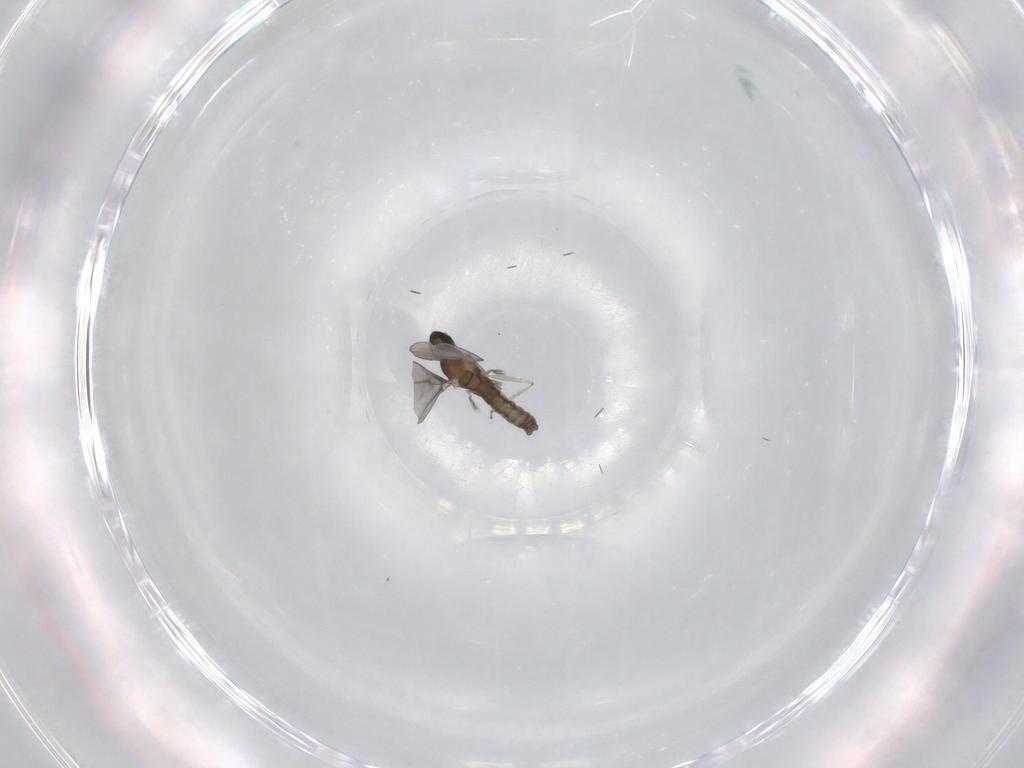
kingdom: Animalia
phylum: Arthropoda
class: Insecta
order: Diptera
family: Cecidomyiidae
